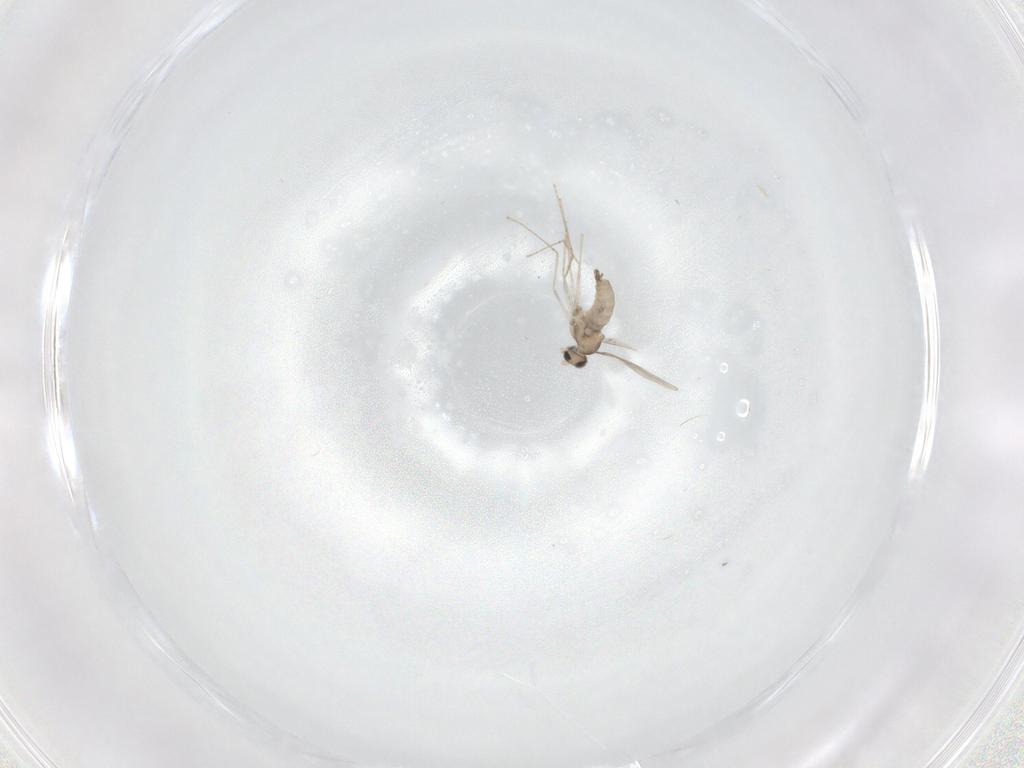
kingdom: Animalia
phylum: Arthropoda
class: Insecta
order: Diptera
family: Cecidomyiidae
